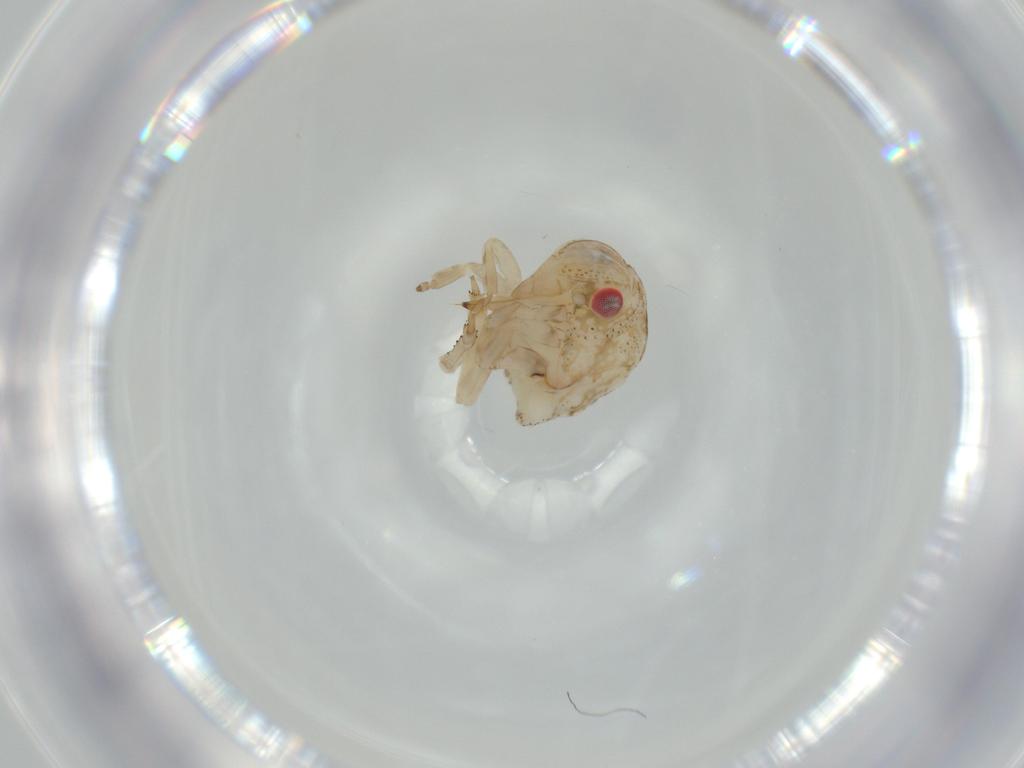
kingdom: Animalia
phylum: Arthropoda
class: Insecta
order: Hemiptera
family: Acanaloniidae
